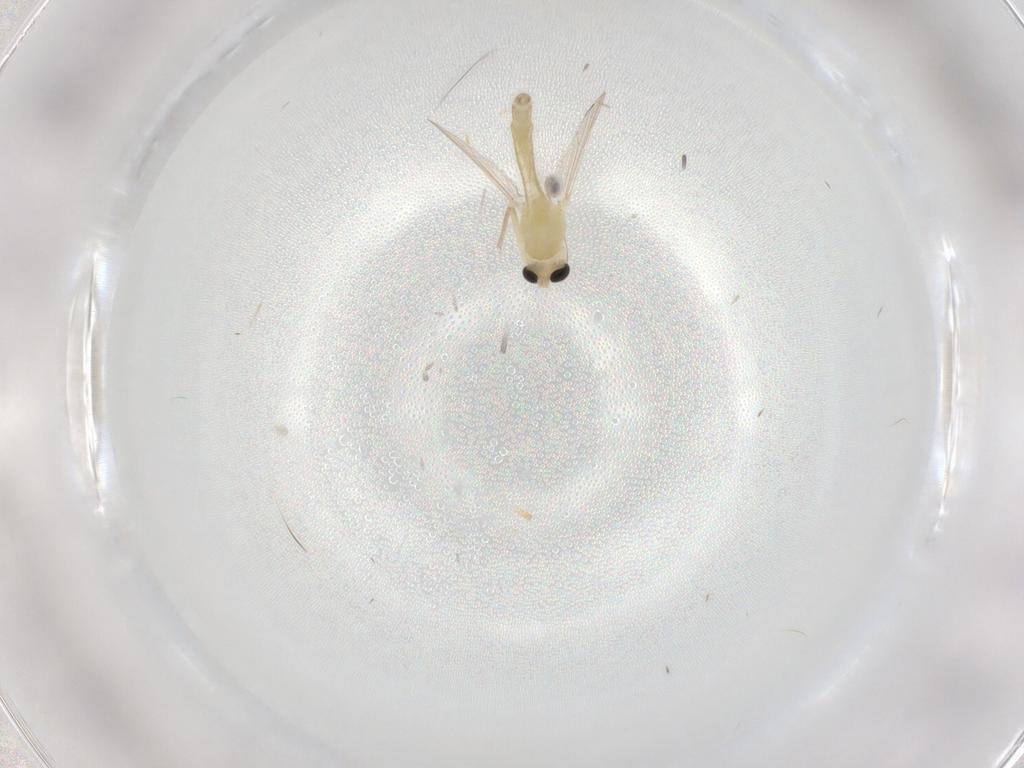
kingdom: Animalia
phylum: Arthropoda
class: Insecta
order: Diptera
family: Chironomidae
